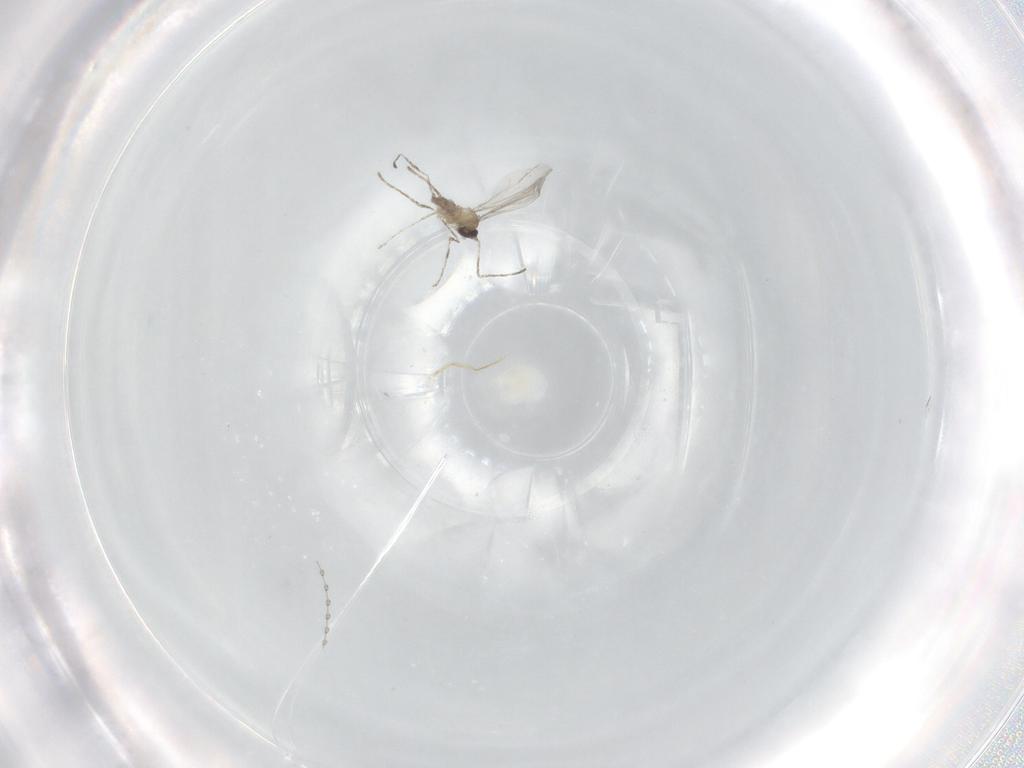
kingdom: Animalia
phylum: Arthropoda
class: Insecta
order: Diptera
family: Cecidomyiidae
